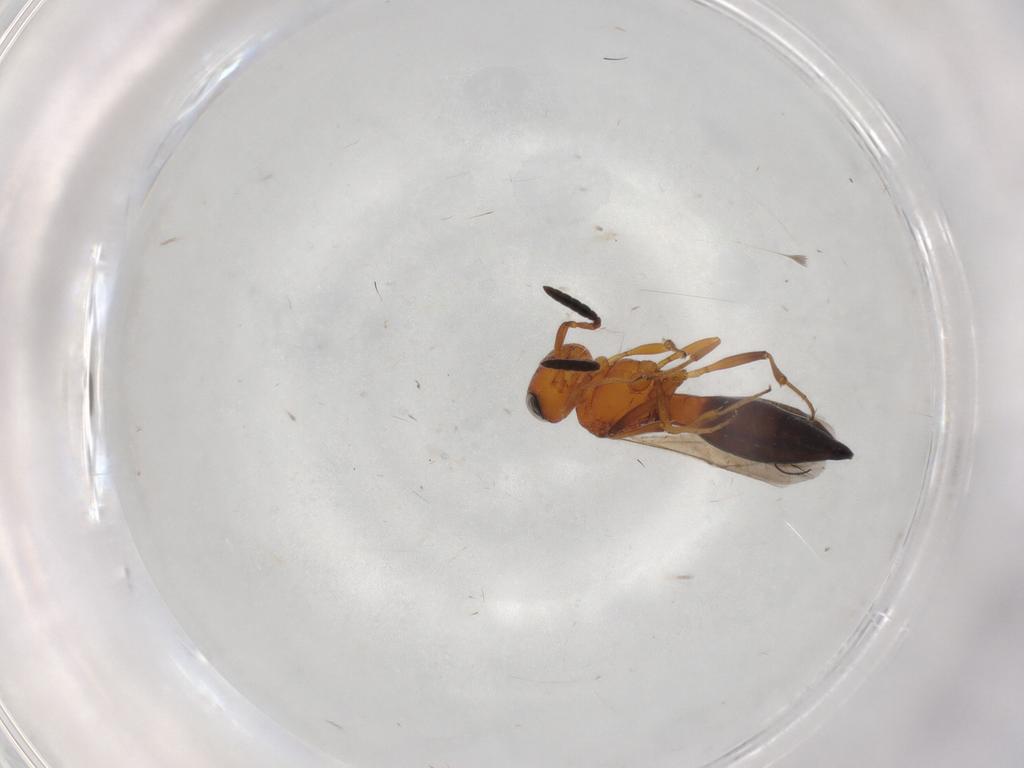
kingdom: Animalia
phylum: Arthropoda
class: Insecta
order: Hymenoptera
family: Scelionidae
